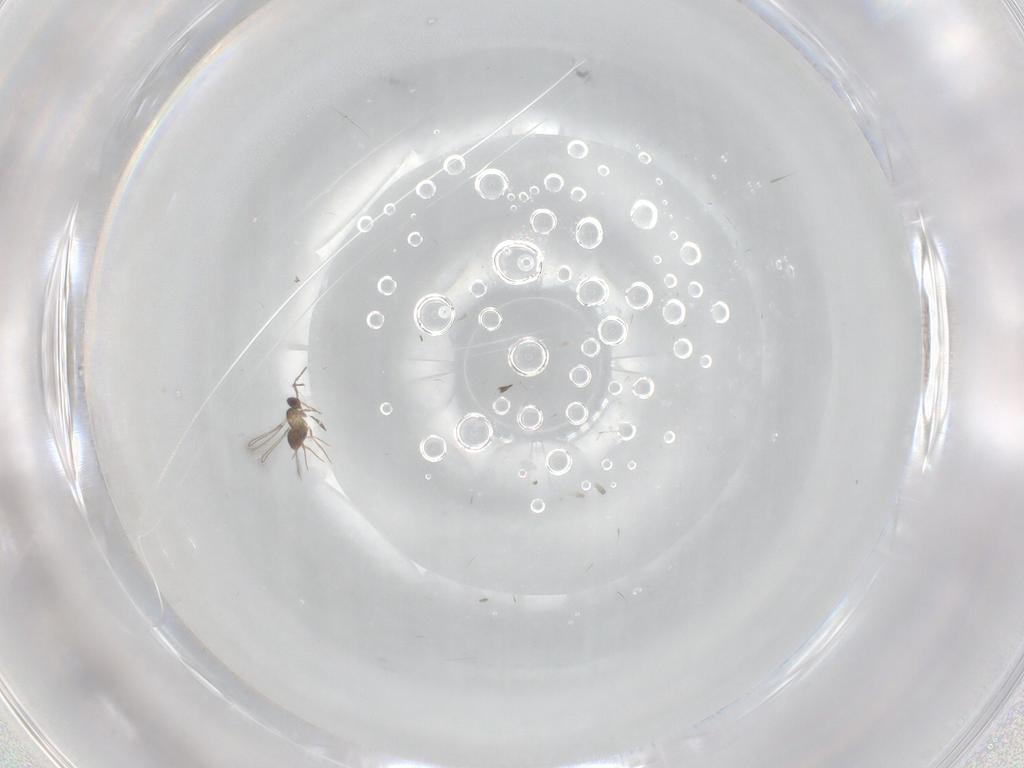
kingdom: Animalia
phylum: Arthropoda
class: Insecta
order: Hymenoptera
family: Mymaridae
